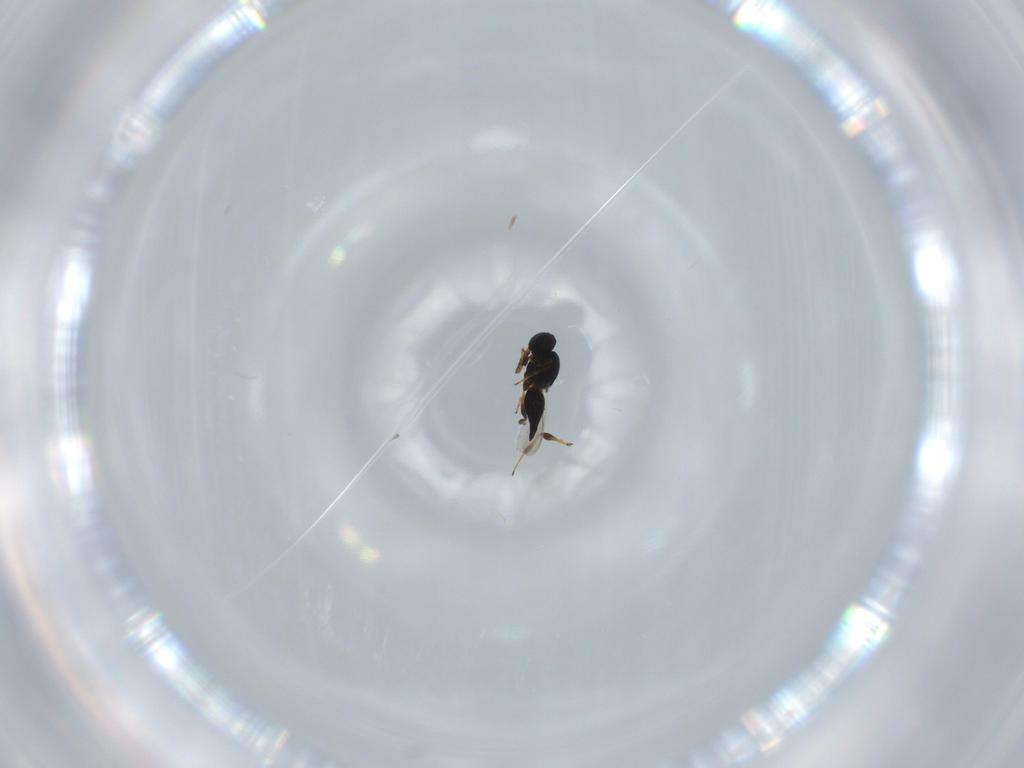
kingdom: Animalia
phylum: Arthropoda
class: Insecta
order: Hymenoptera
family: Platygastridae
